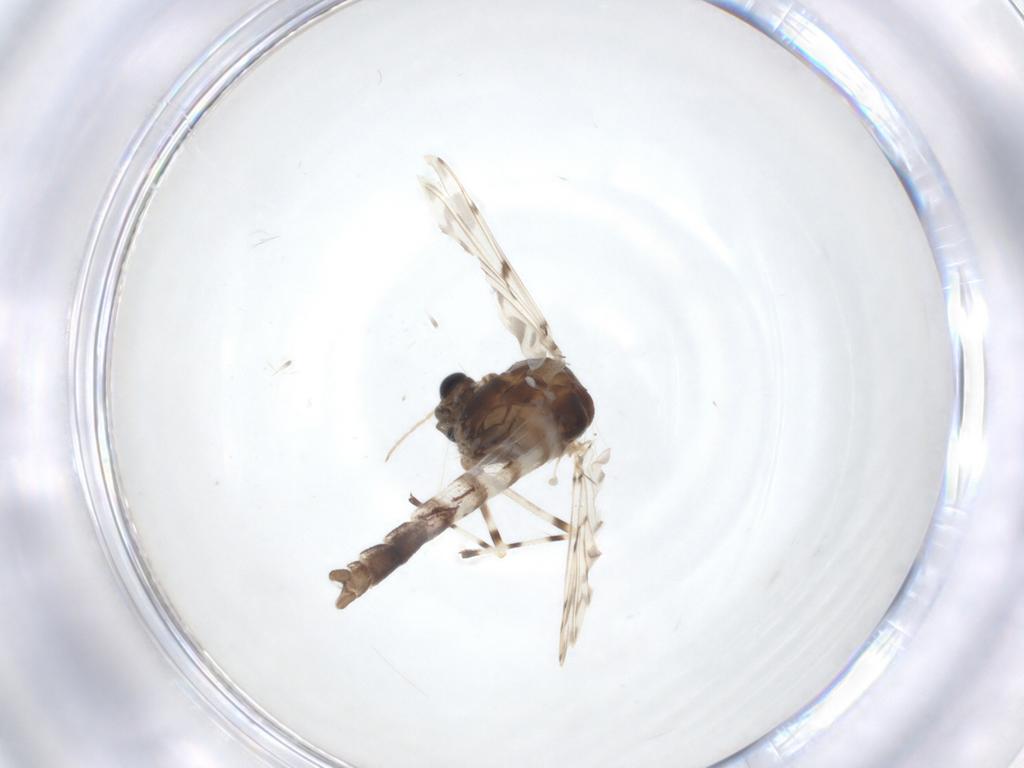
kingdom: Animalia
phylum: Arthropoda
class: Insecta
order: Diptera
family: Chironomidae
